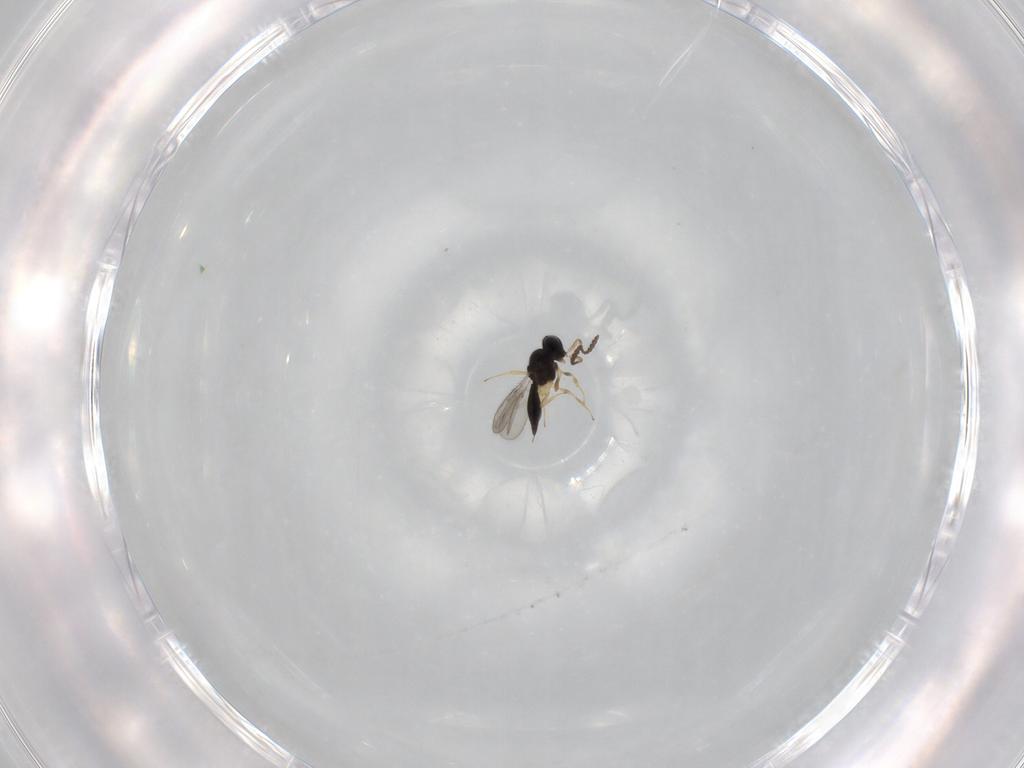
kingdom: Animalia
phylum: Arthropoda
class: Insecta
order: Hymenoptera
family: Scelionidae
